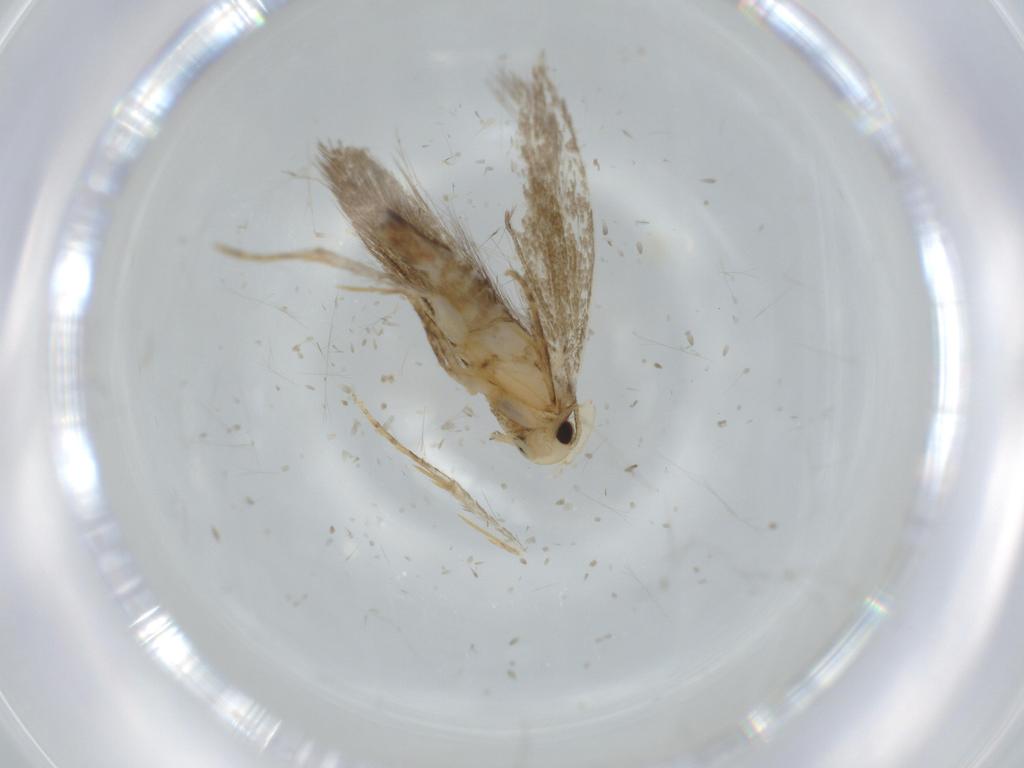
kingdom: Animalia
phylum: Arthropoda
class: Insecta
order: Lepidoptera
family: Tineidae
